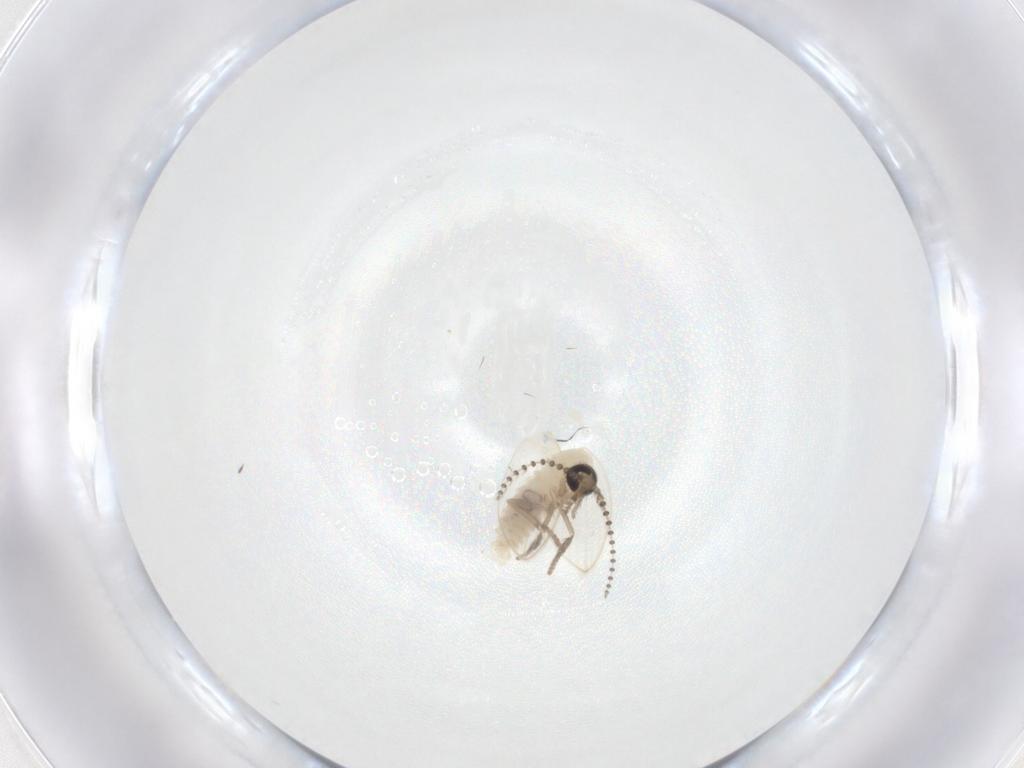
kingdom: Animalia
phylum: Arthropoda
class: Insecta
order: Diptera
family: Psychodidae
